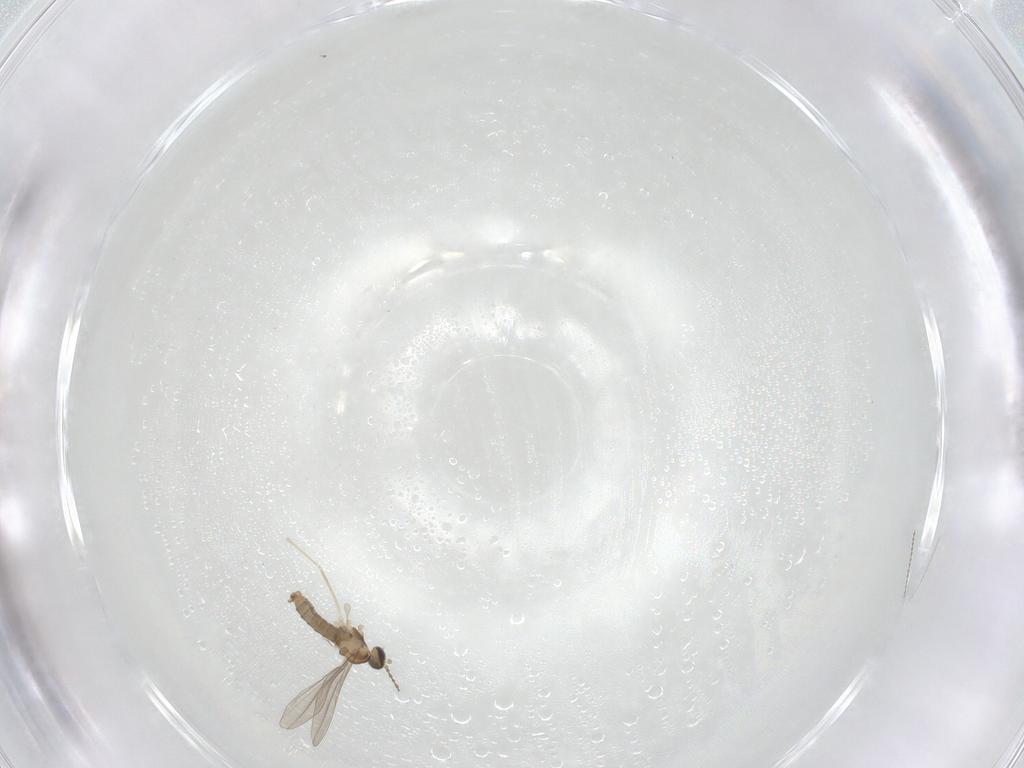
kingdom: Animalia
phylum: Arthropoda
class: Insecta
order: Diptera
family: Cecidomyiidae
